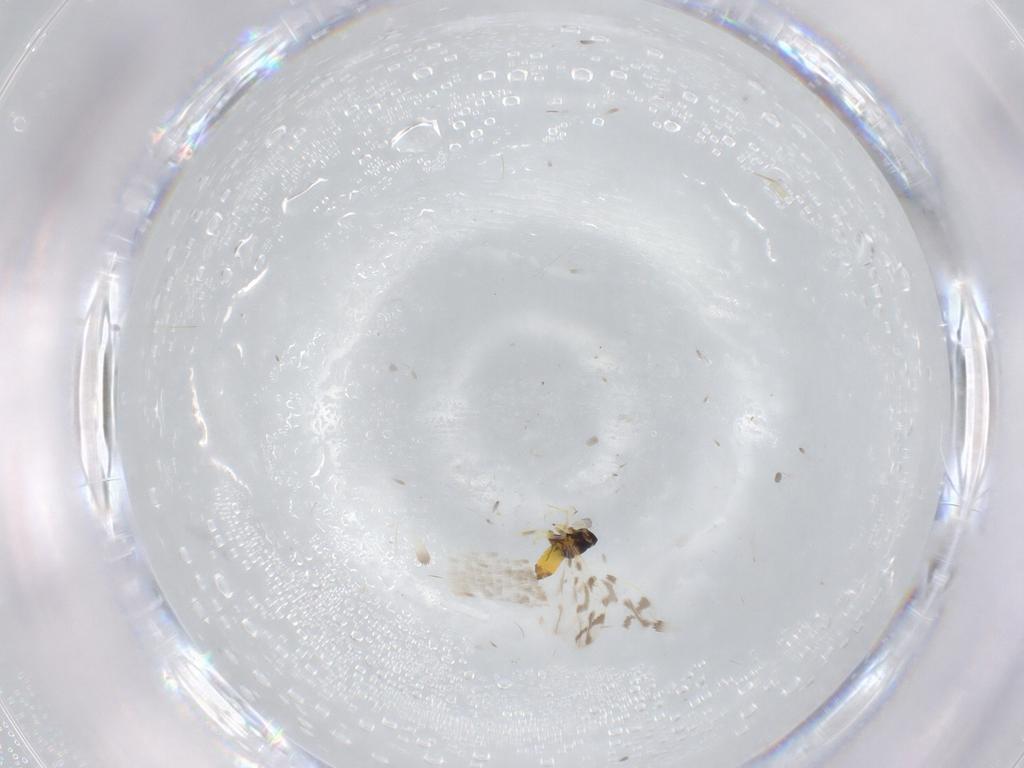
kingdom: Animalia
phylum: Arthropoda
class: Insecta
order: Hemiptera
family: Aleyrodidae
